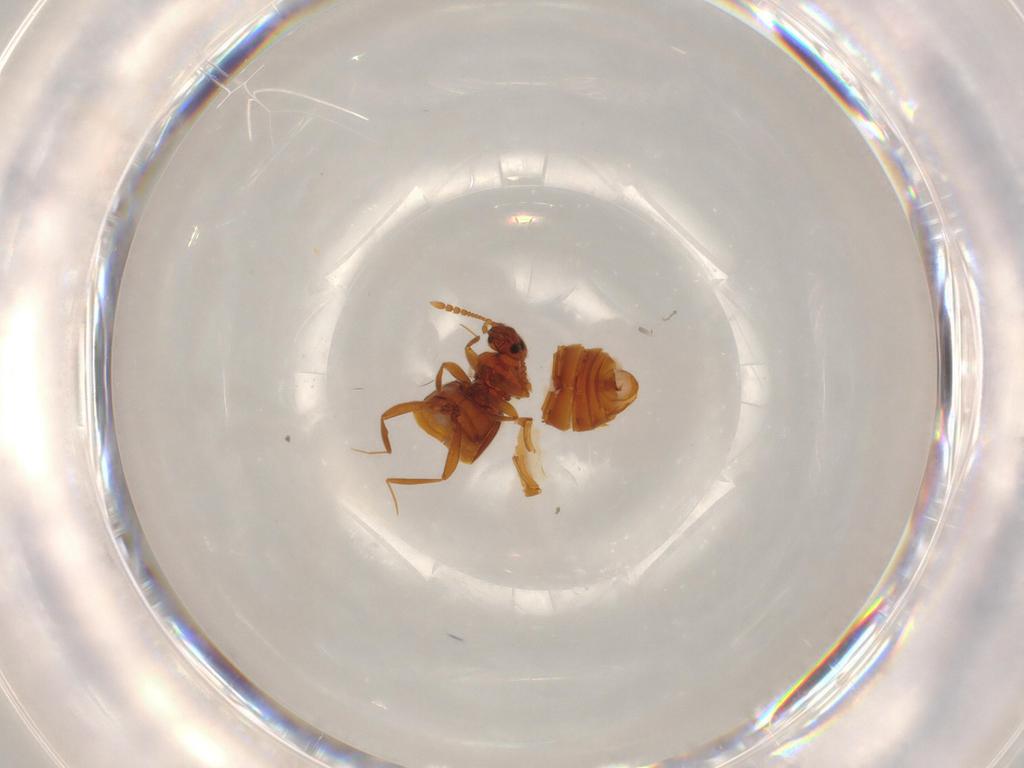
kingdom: Animalia
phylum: Arthropoda
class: Insecta
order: Coleoptera
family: Elateridae
